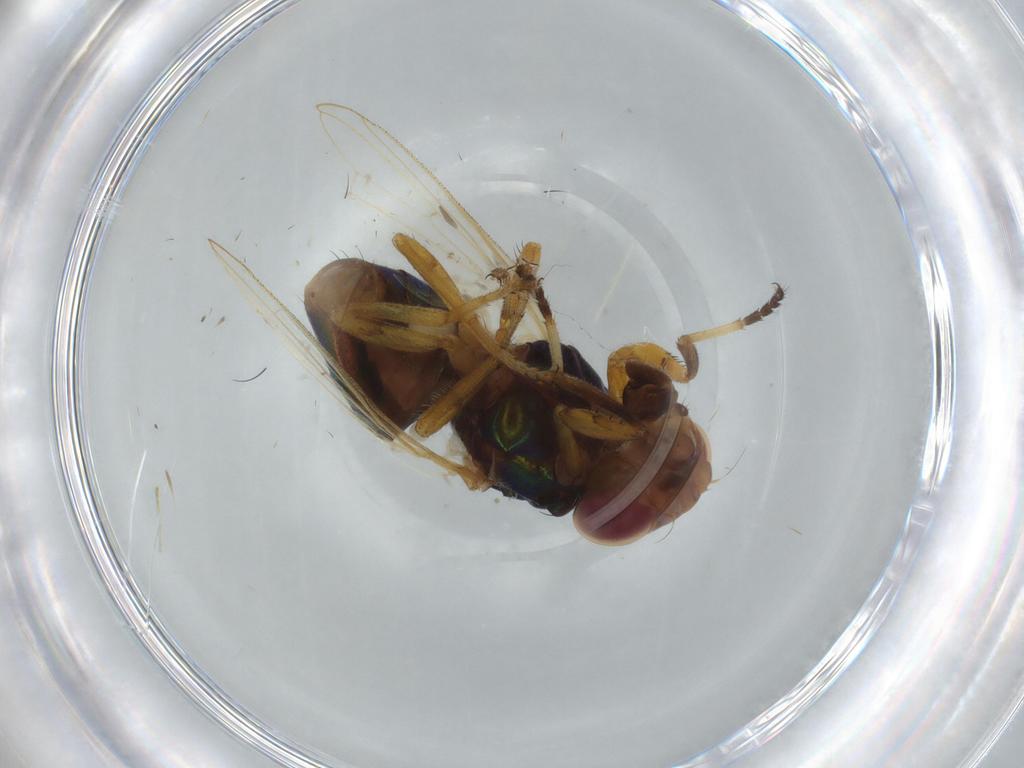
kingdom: Animalia
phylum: Arthropoda
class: Insecta
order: Diptera
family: Ulidiidae
